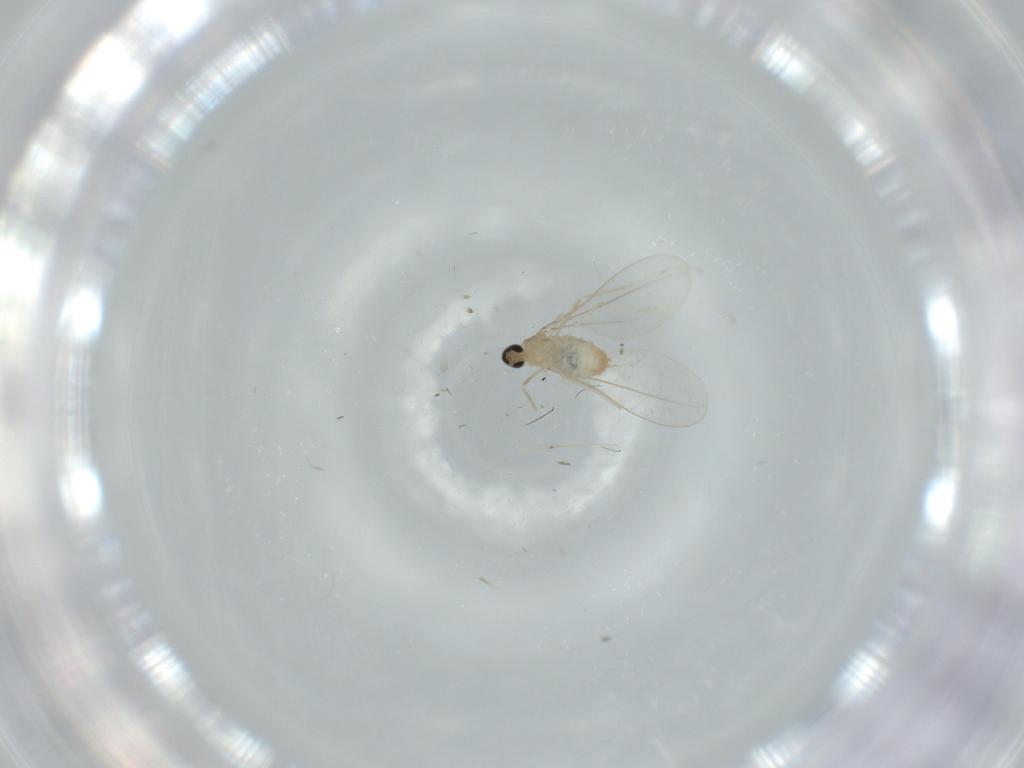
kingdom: Animalia
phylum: Arthropoda
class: Insecta
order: Diptera
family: Cecidomyiidae
